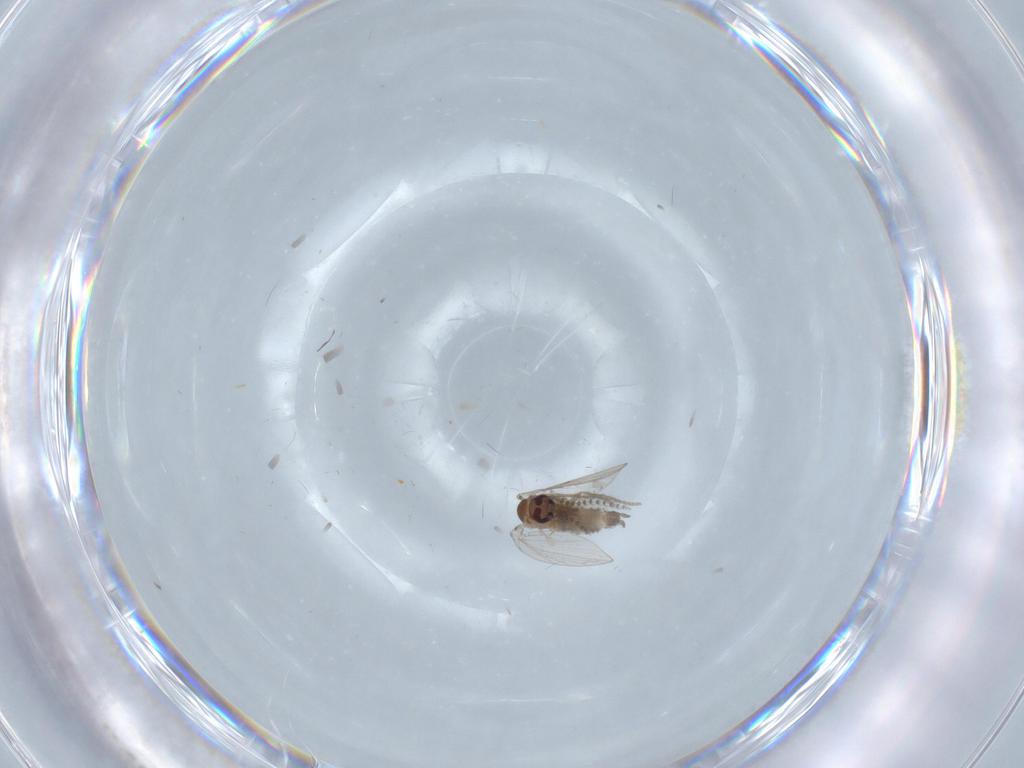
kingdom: Animalia
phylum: Arthropoda
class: Insecta
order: Diptera
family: Psychodidae
